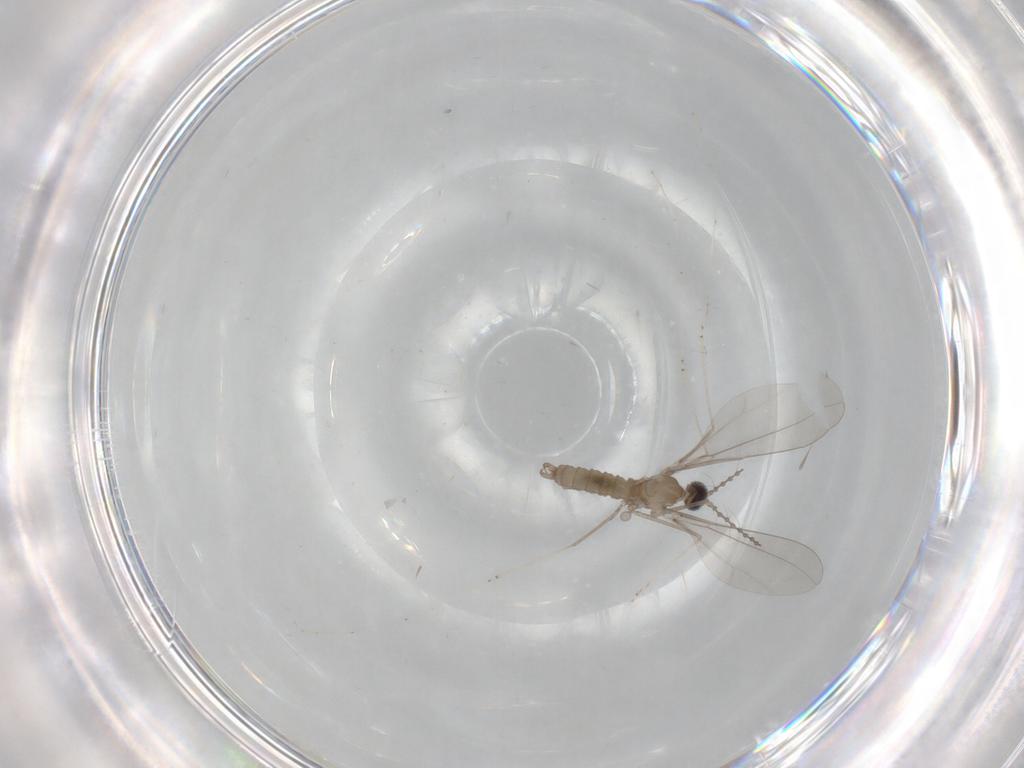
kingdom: Animalia
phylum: Arthropoda
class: Insecta
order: Diptera
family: Cecidomyiidae
